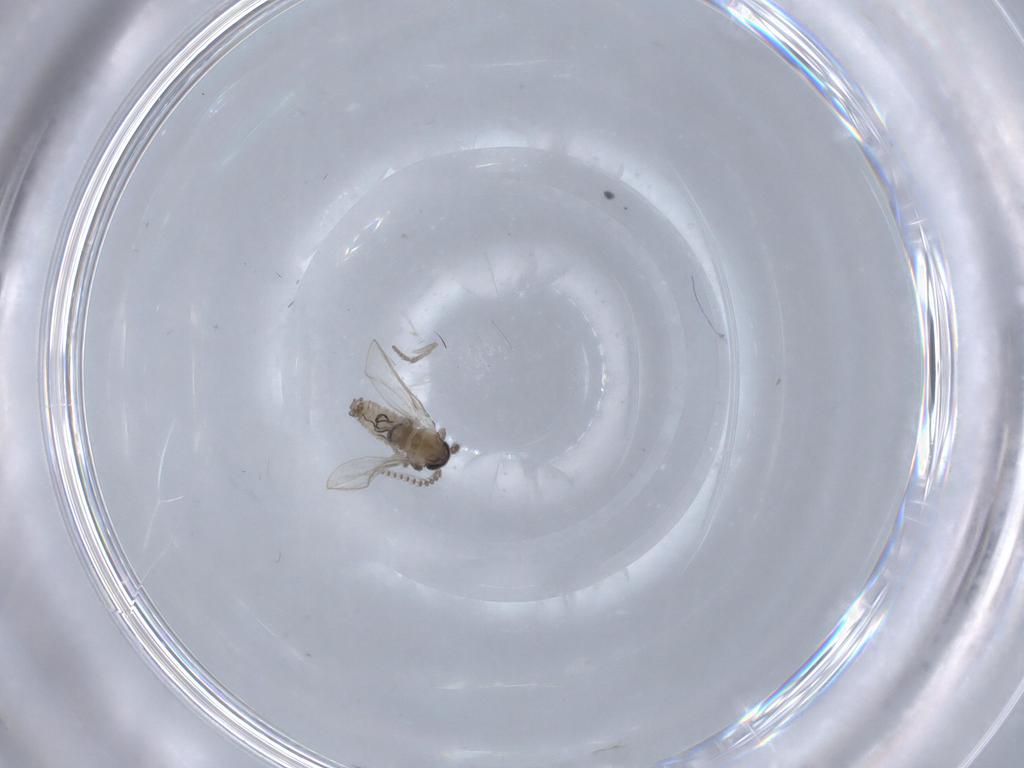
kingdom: Animalia
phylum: Arthropoda
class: Insecta
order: Diptera
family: Psychodidae
